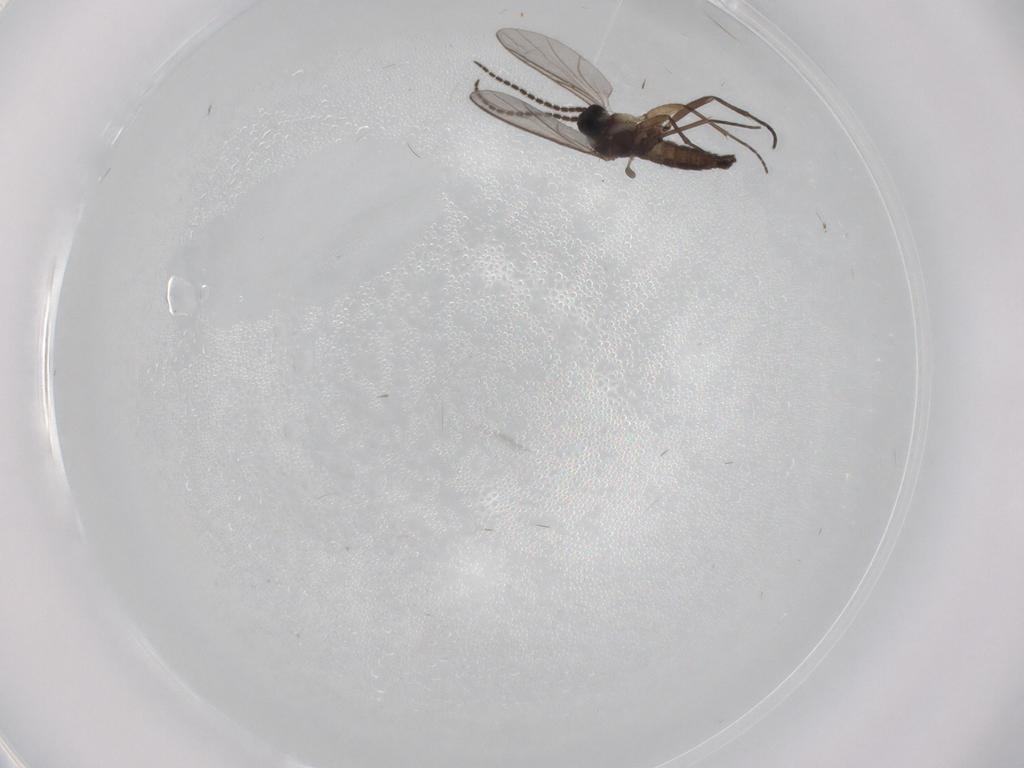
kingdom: Animalia
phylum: Arthropoda
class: Insecta
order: Diptera
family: Sciaridae
